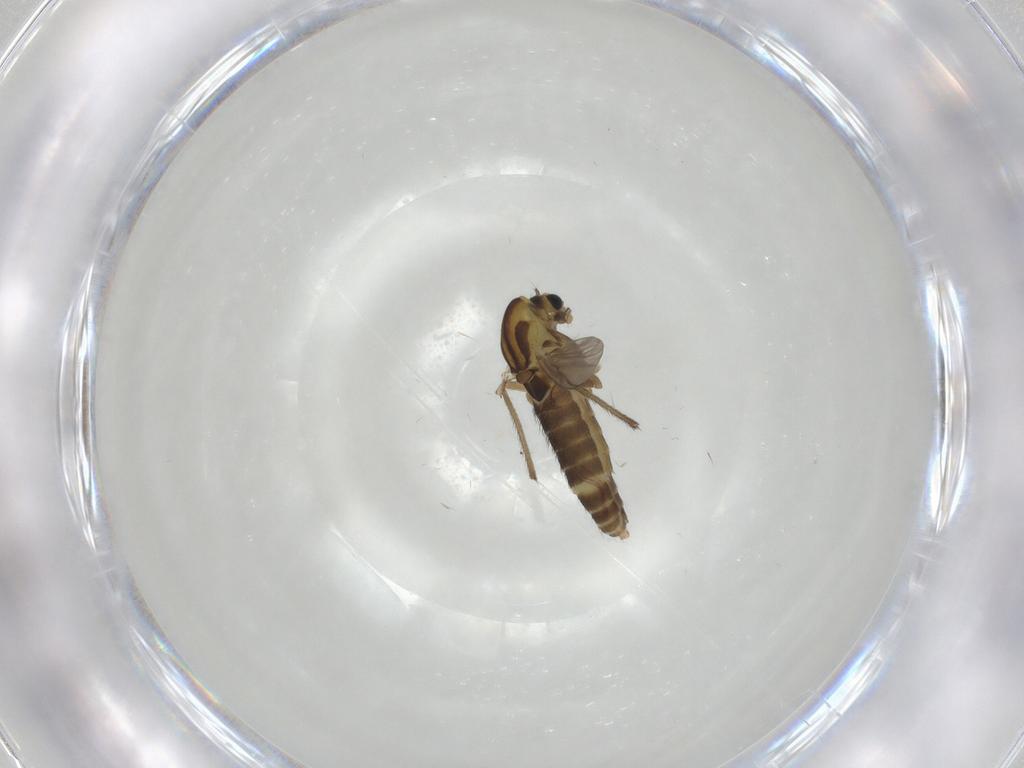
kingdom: Animalia
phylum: Arthropoda
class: Insecta
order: Diptera
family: Chironomidae
